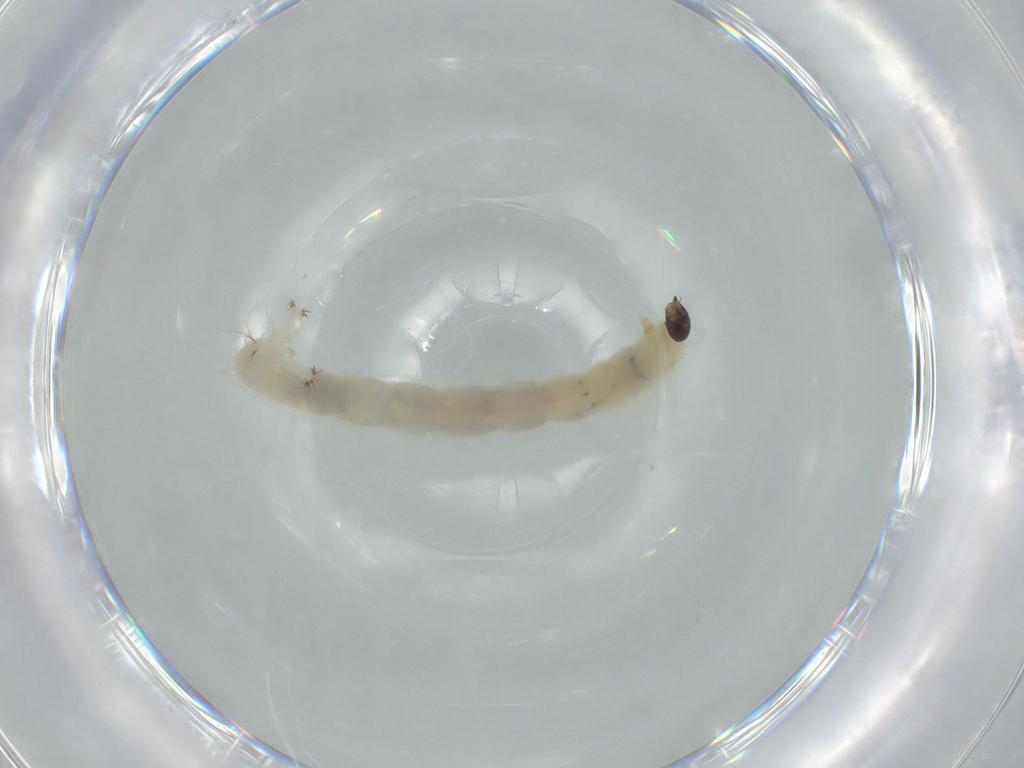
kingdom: Animalia
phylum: Arthropoda
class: Insecta
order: Diptera
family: Chironomidae
